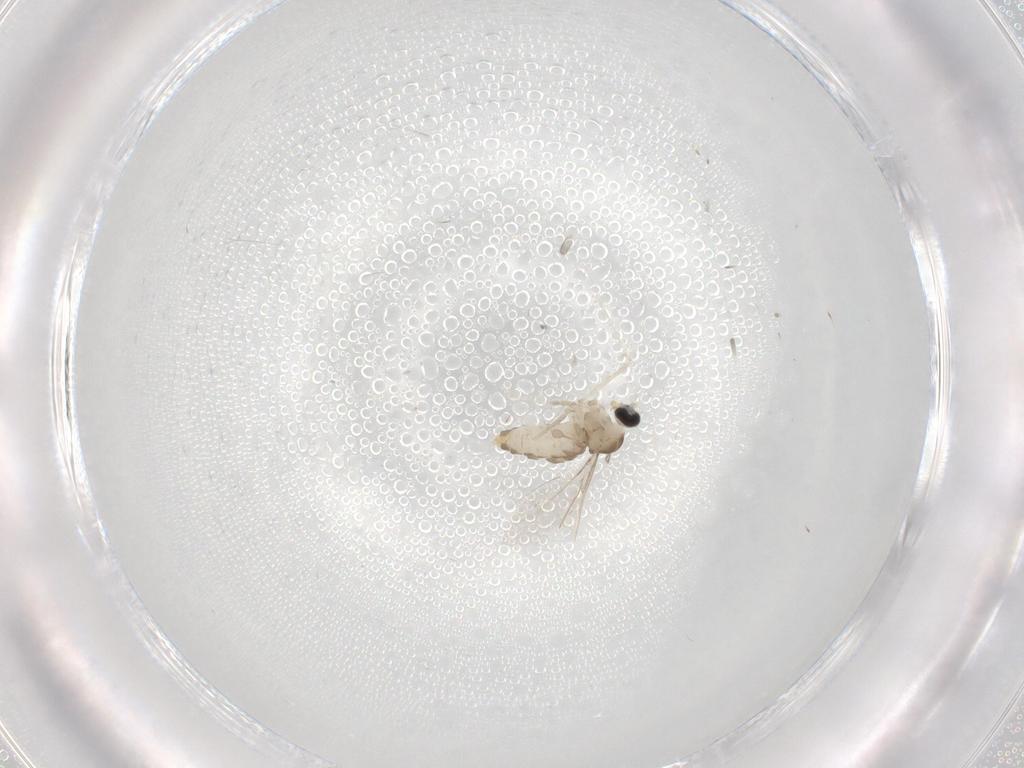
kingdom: Animalia
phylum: Arthropoda
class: Insecta
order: Diptera
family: Cecidomyiidae
